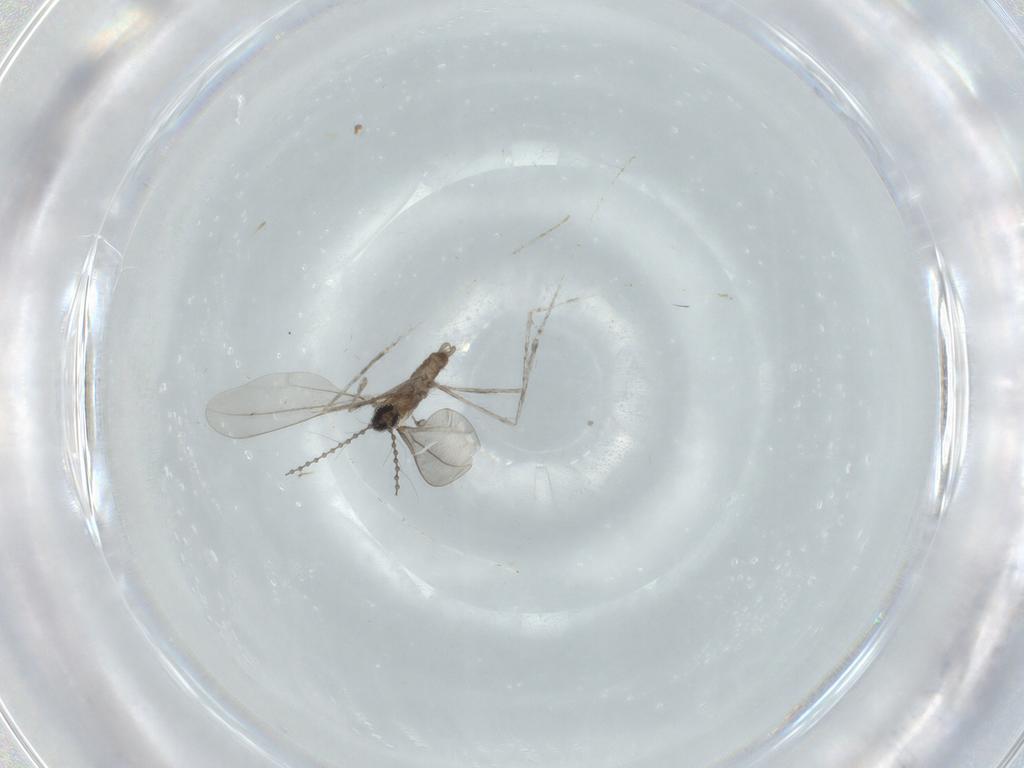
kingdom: Animalia
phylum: Arthropoda
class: Insecta
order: Diptera
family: Cecidomyiidae
